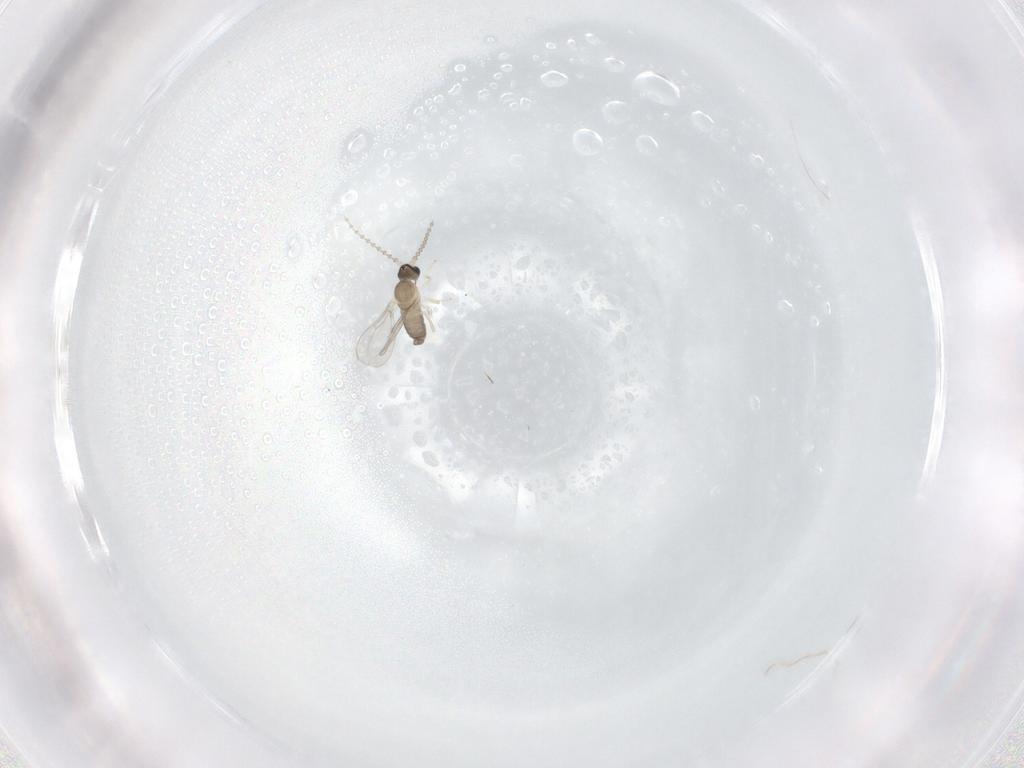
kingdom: Animalia
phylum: Arthropoda
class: Insecta
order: Diptera
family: Cecidomyiidae
